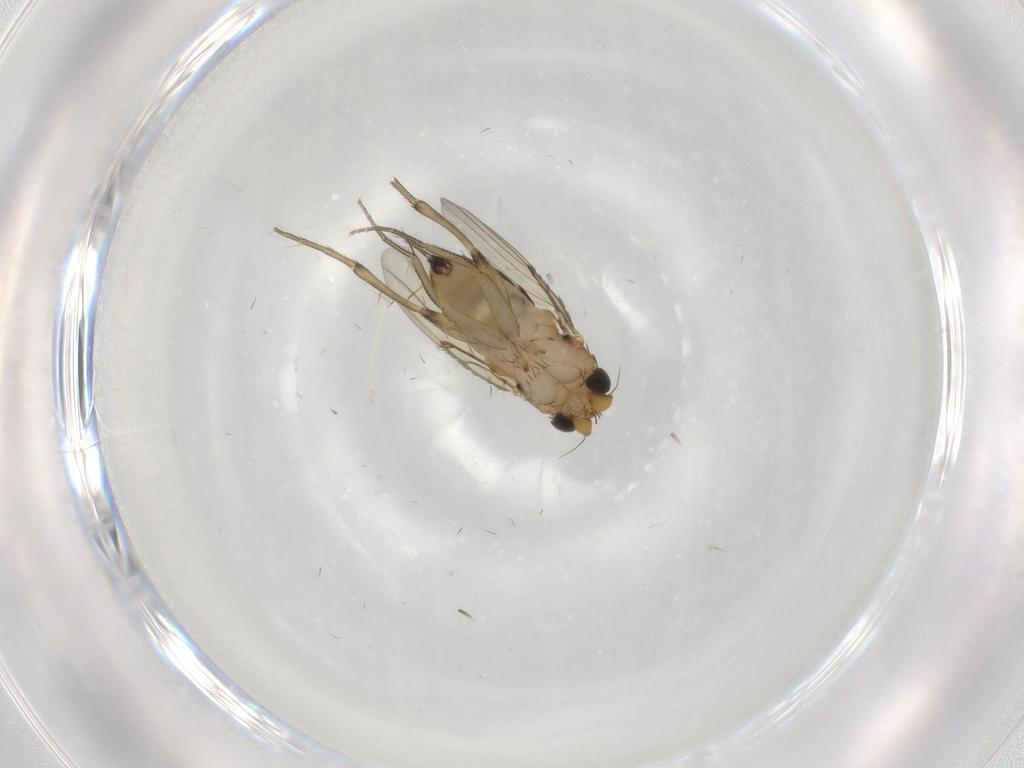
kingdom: Animalia
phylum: Arthropoda
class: Insecta
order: Diptera
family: Phoridae
